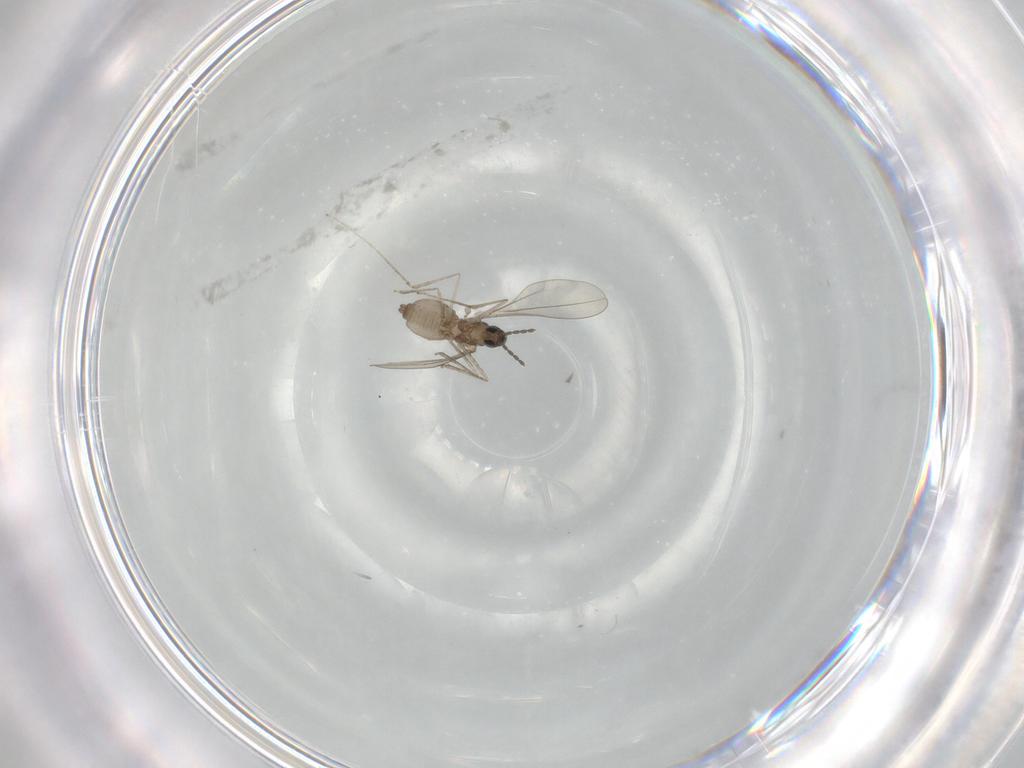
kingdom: Animalia
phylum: Arthropoda
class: Insecta
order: Diptera
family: Cecidomyiidae
